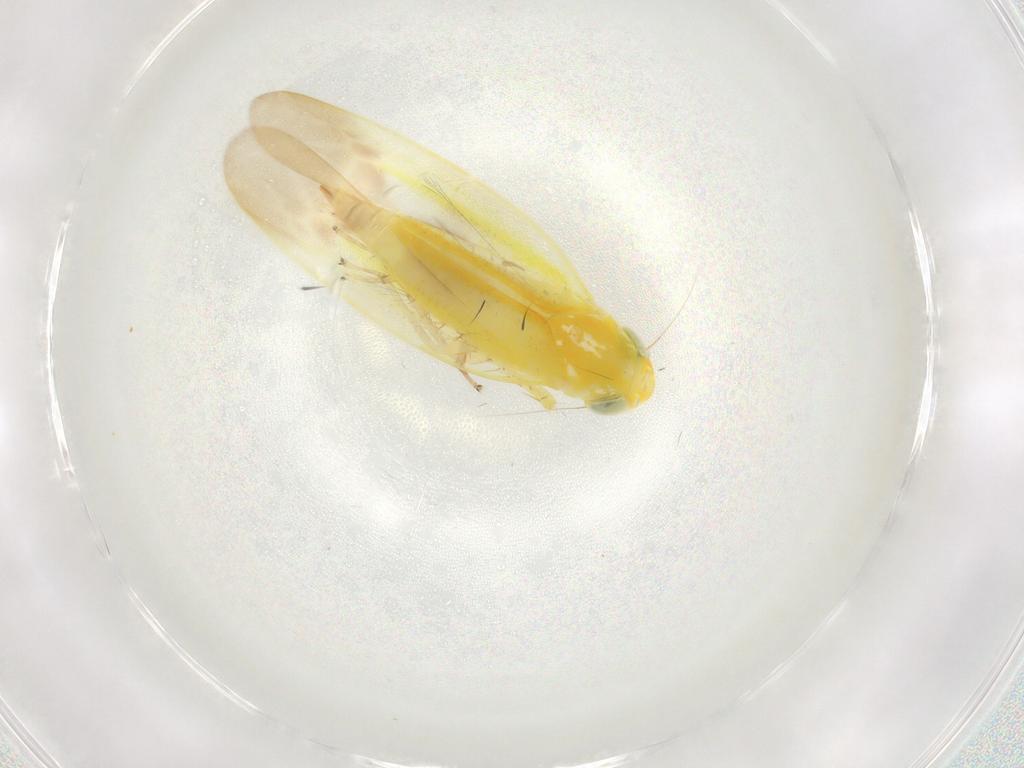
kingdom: Animalia
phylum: Arthropoda
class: Insecta
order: Hemiptera
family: Cicadellidae
